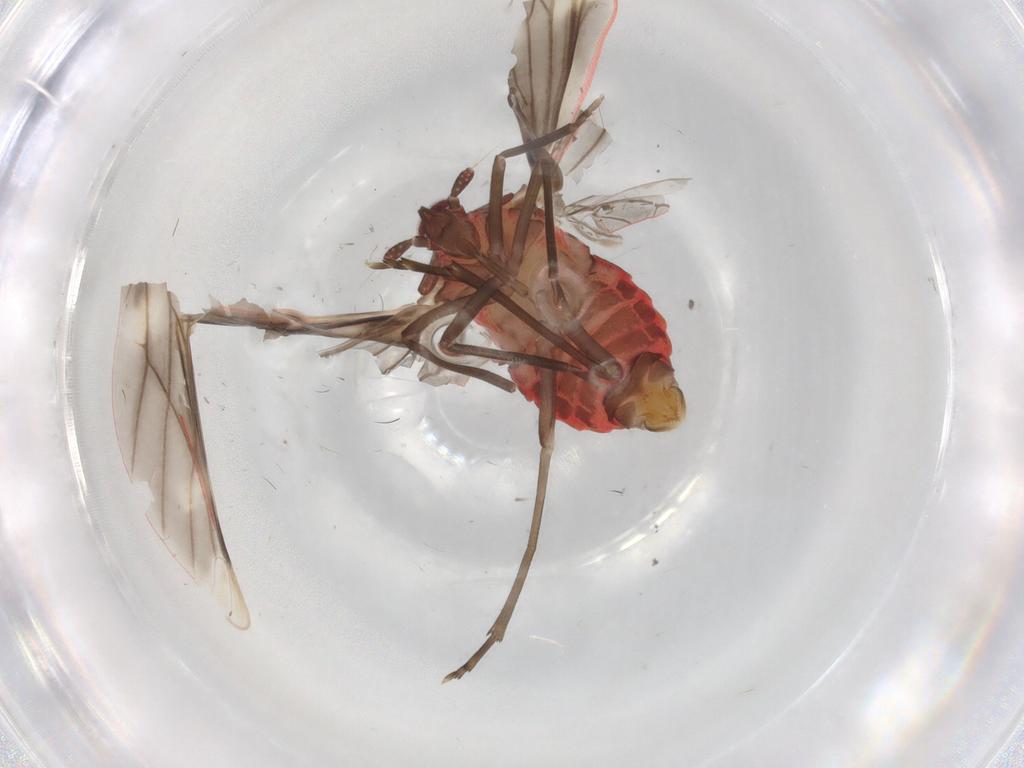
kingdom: Animalia
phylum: Arthropoda
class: Insecta
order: Hemiptera
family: Derbidae
